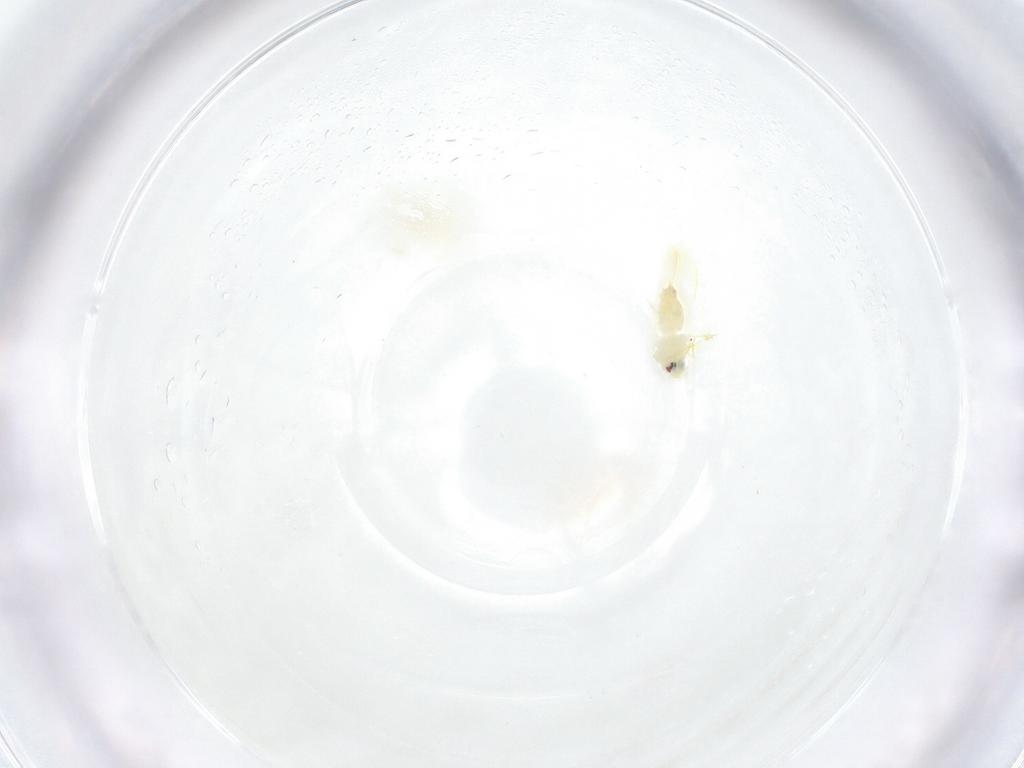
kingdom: Animalia
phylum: Arthropoda
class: Insecta
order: Hemiptera
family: Aleyrodidae
